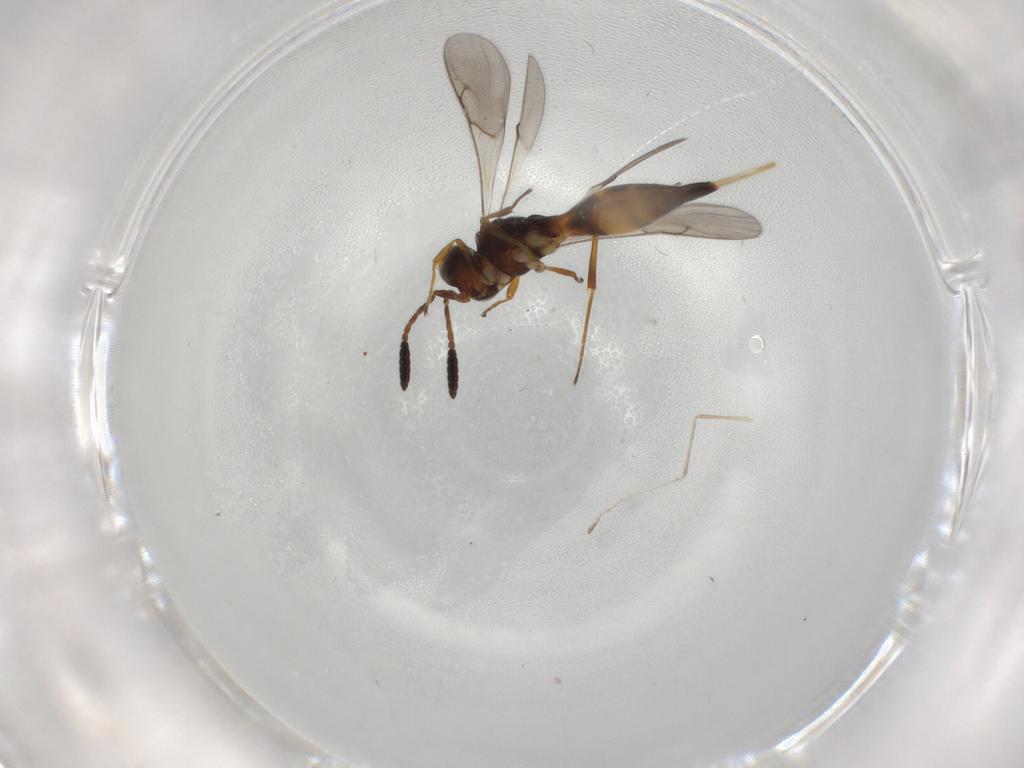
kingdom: Animalia
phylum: Arthropoda
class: Insecta
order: Hymenoptera
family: Scelionidae
